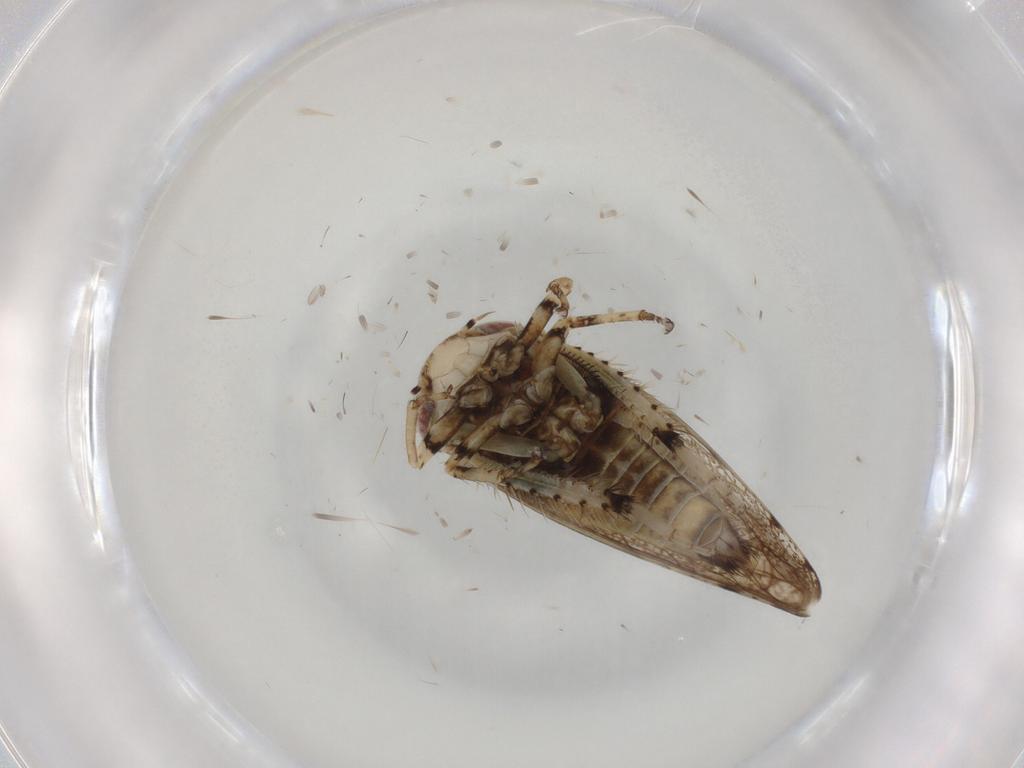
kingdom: Animalia
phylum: Arthropoda
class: Insecta
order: Hemiptera
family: Cicadellidae
